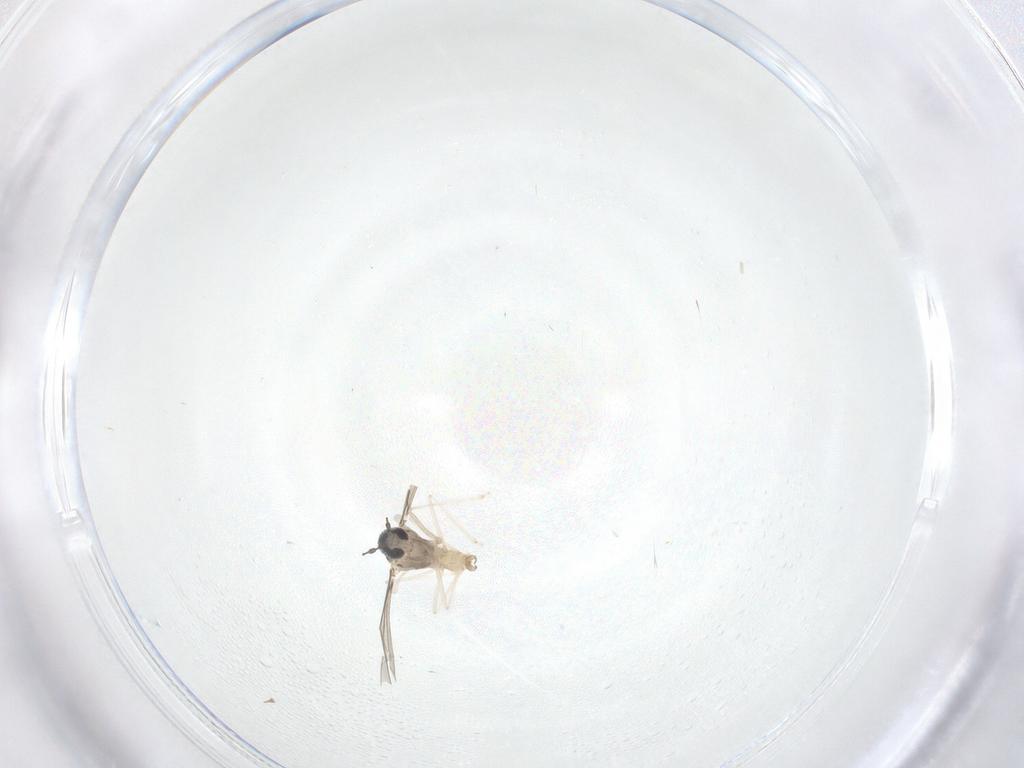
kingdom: Animalia
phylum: Arthropoda
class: Insecta
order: Diptera
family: Cecidomyiidae
